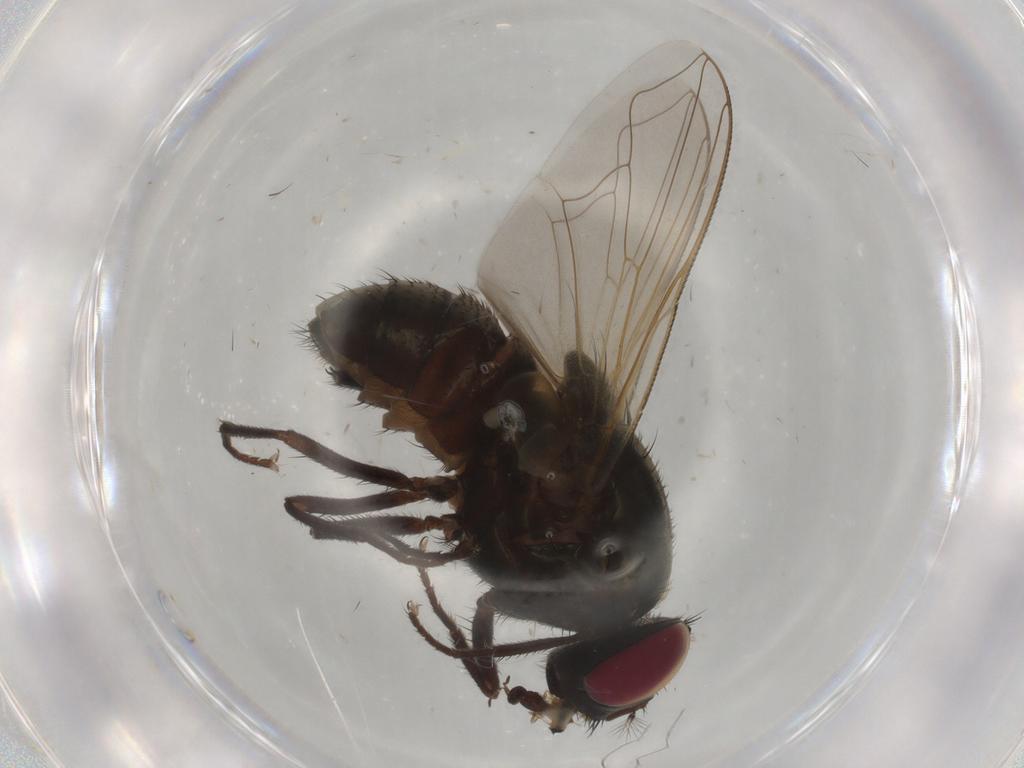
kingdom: Animalia
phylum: Arthropoda
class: Insecta
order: Diptera
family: Muscidae
